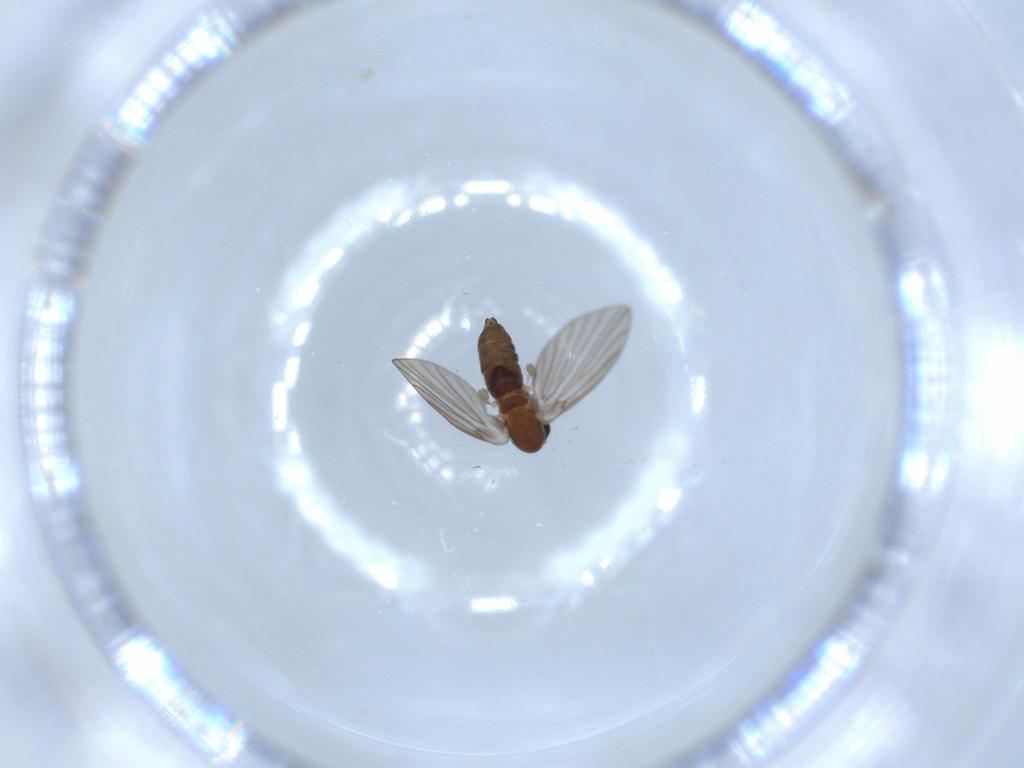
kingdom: Animalia
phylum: Arthropoda
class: Insecta
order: Diptera
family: Psychodidae
